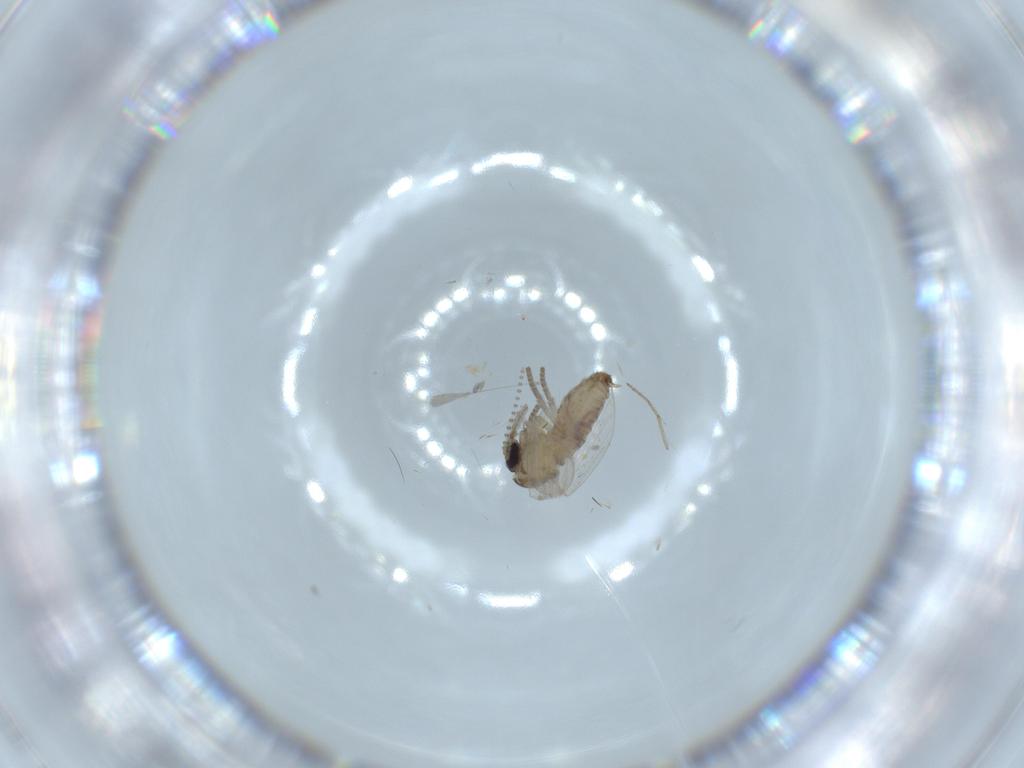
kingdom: Animalia
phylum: Arthropoda
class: Insecta
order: Diptera
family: Psychodidae
